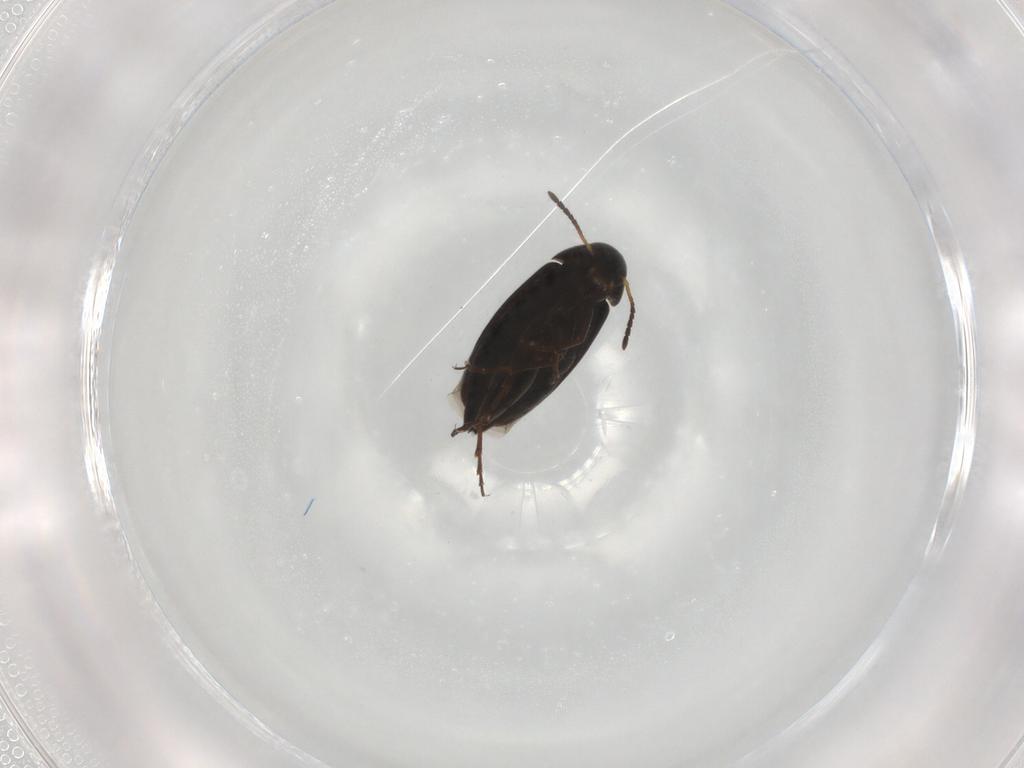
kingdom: Animalia
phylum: Arthropoda
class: Insecta
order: Coleoptera
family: Scraptiidae
